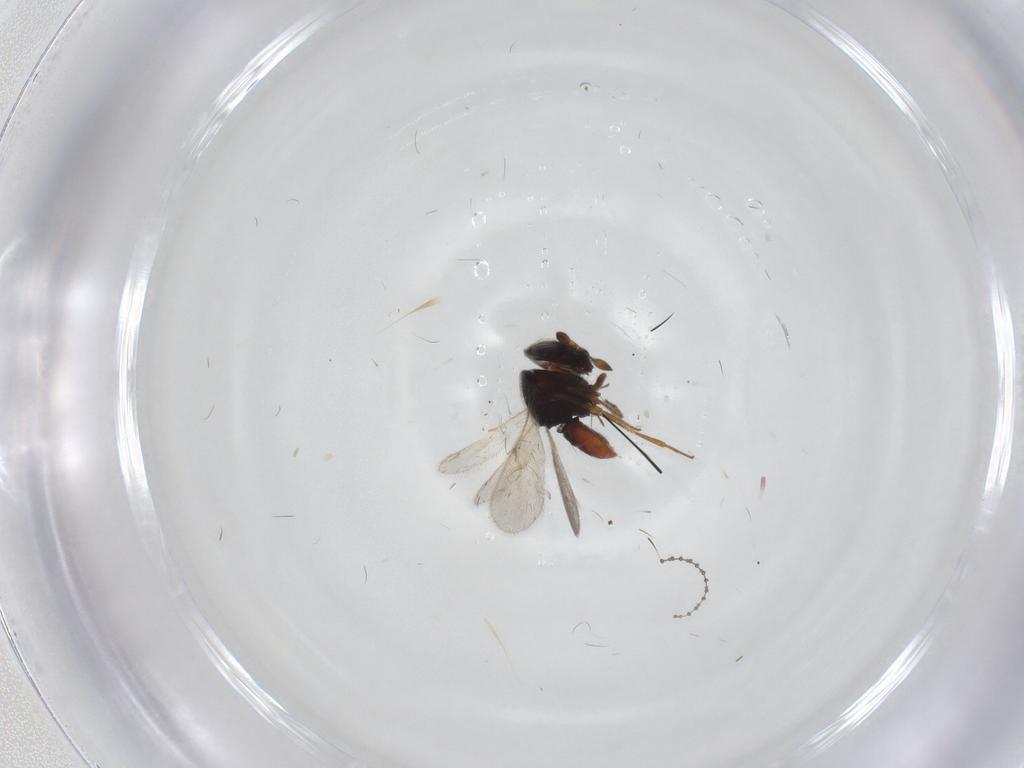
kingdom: Animalia
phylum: Arthropoda
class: Insecta
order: Hymenoptera
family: Scelionidae
